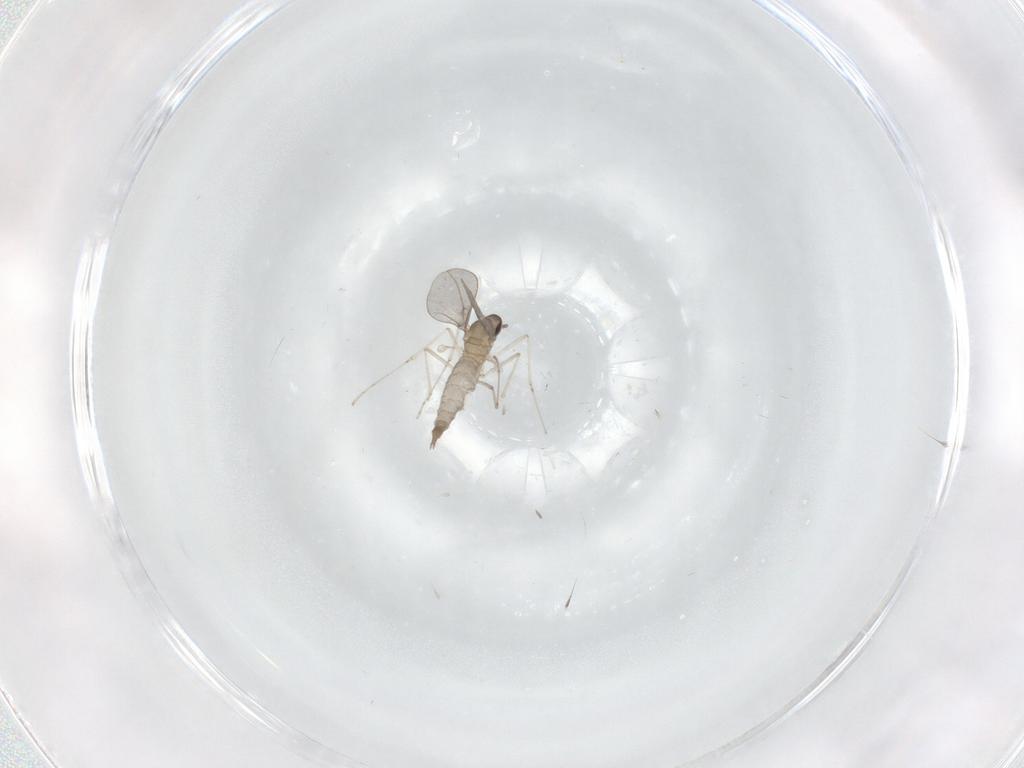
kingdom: Animalia
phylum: Arthropoda
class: Insecta
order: Diptera
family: Cecidomyiidae
